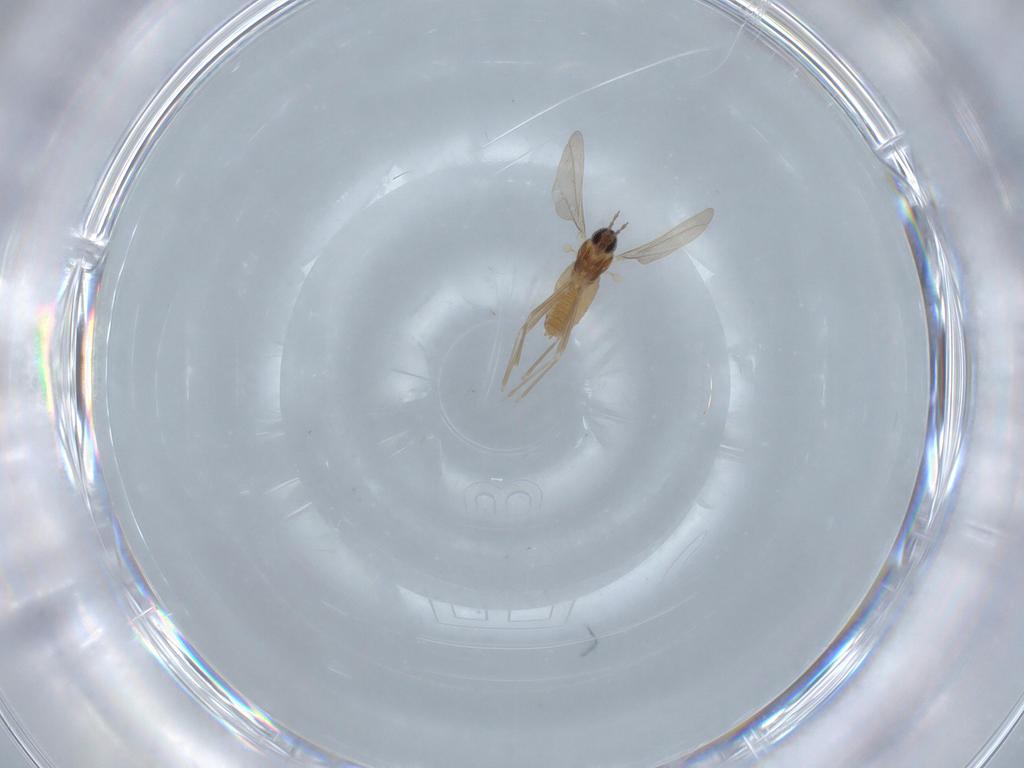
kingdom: Animalia
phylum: Arthropoda
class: Insecta
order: Diptera
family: Cecidomyiidae
